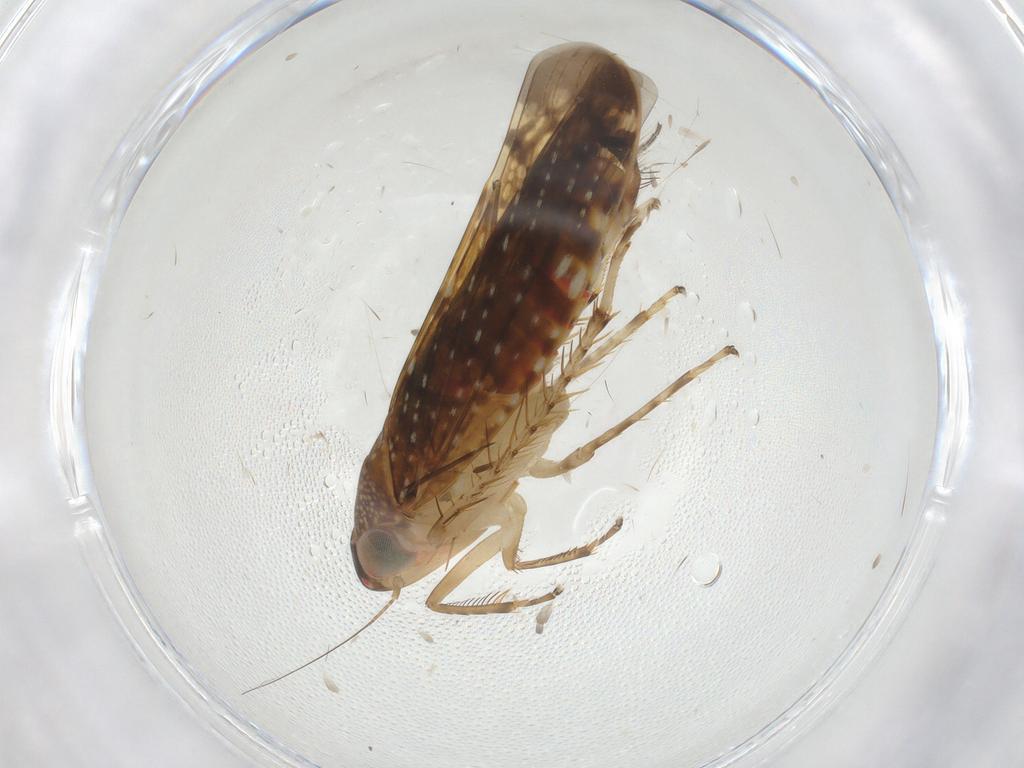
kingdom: Animalia
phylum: Arthropoda
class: Insecta
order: Hemiptera
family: Cicadellidae
